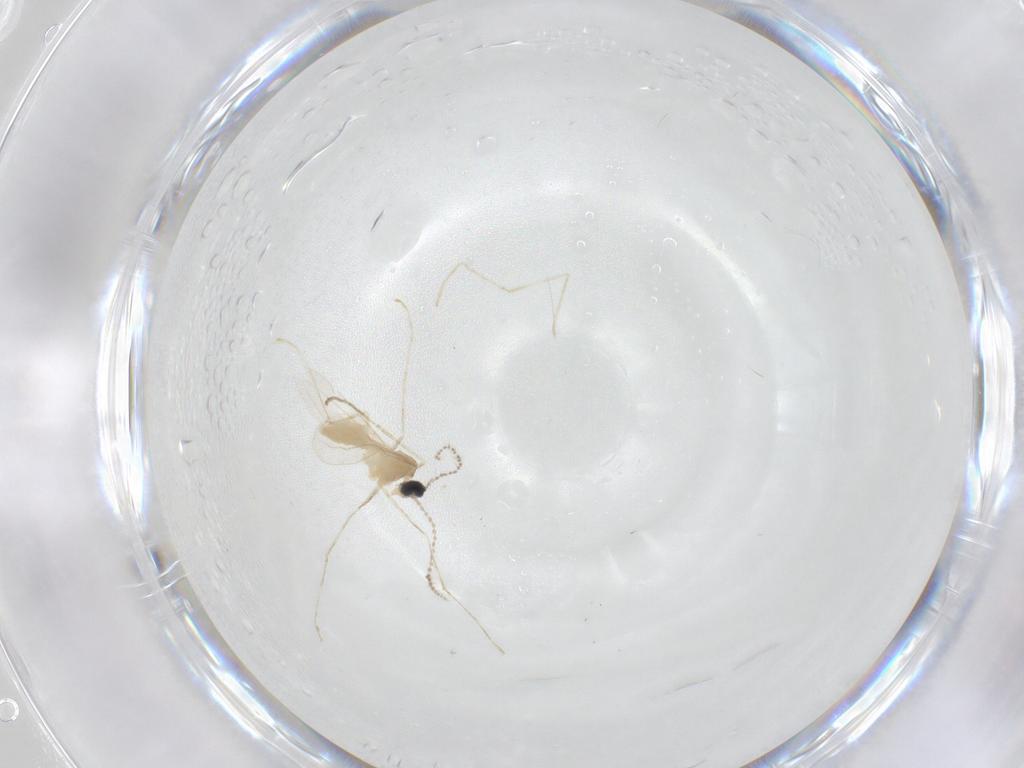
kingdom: Animalia
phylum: Arthropoda
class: Insecta
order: Diptera
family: Cecidomyiidae
